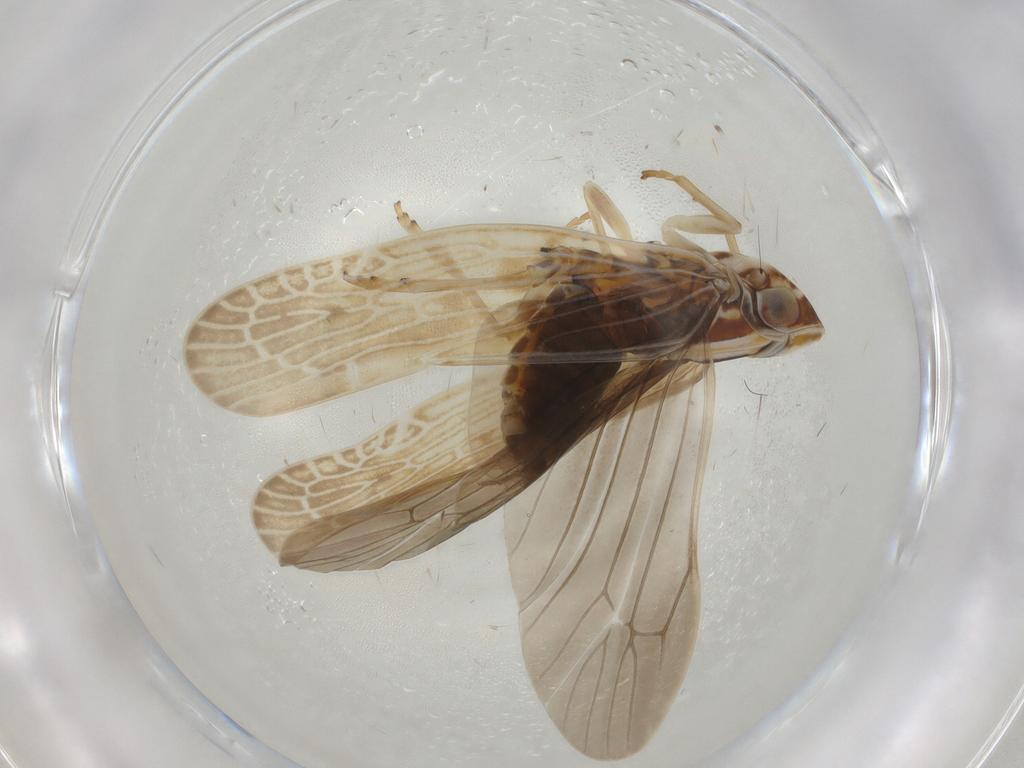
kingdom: Animalia
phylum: Arthropoda
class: Insecta
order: Hemiptera
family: Achilidae
